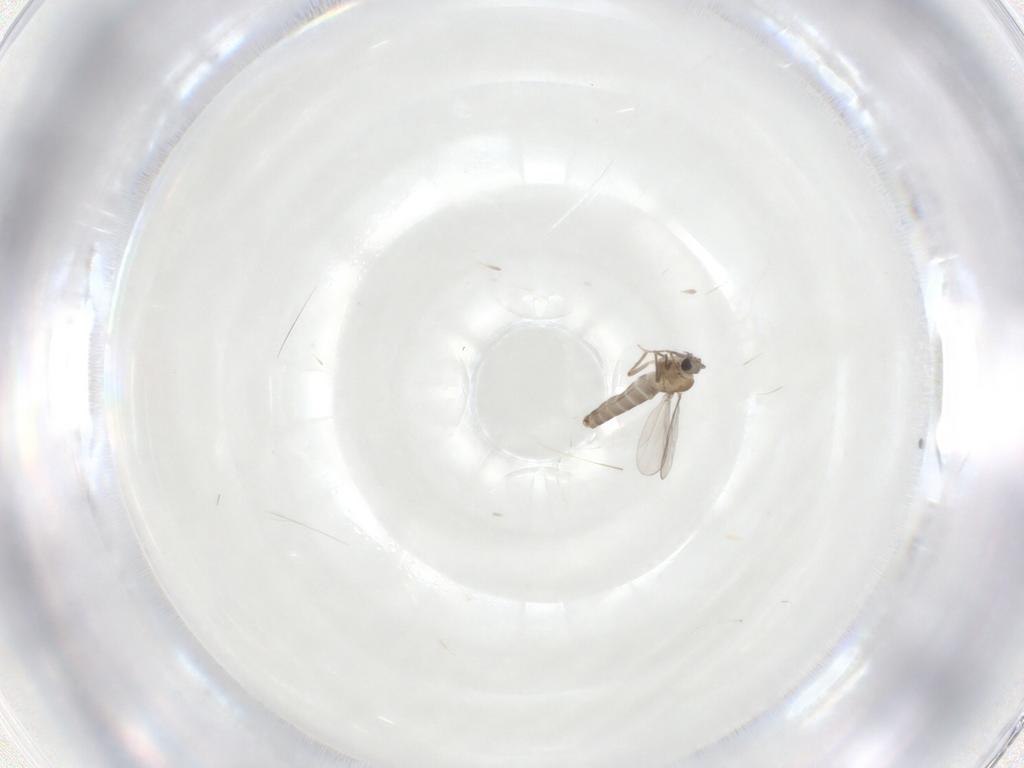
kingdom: Animalia
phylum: Arthropoda
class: Insecta
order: Diptera
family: Chironomidae
